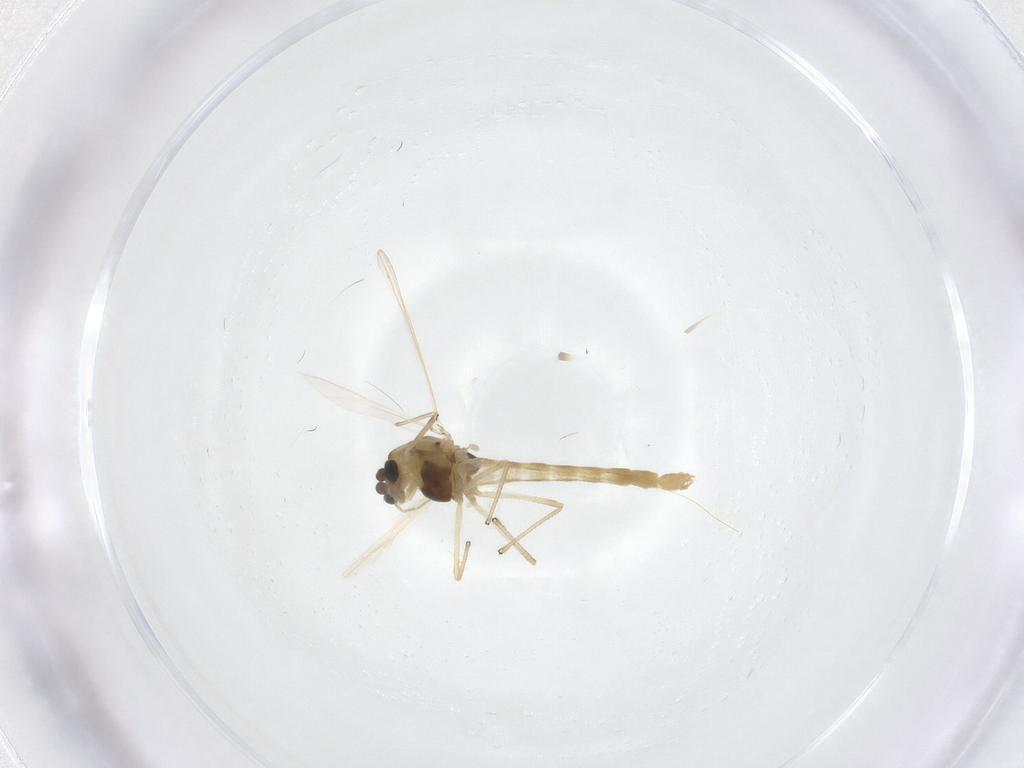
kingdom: Animalia
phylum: Arthropoda
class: Insecta
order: Diptera
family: Chironomidae
